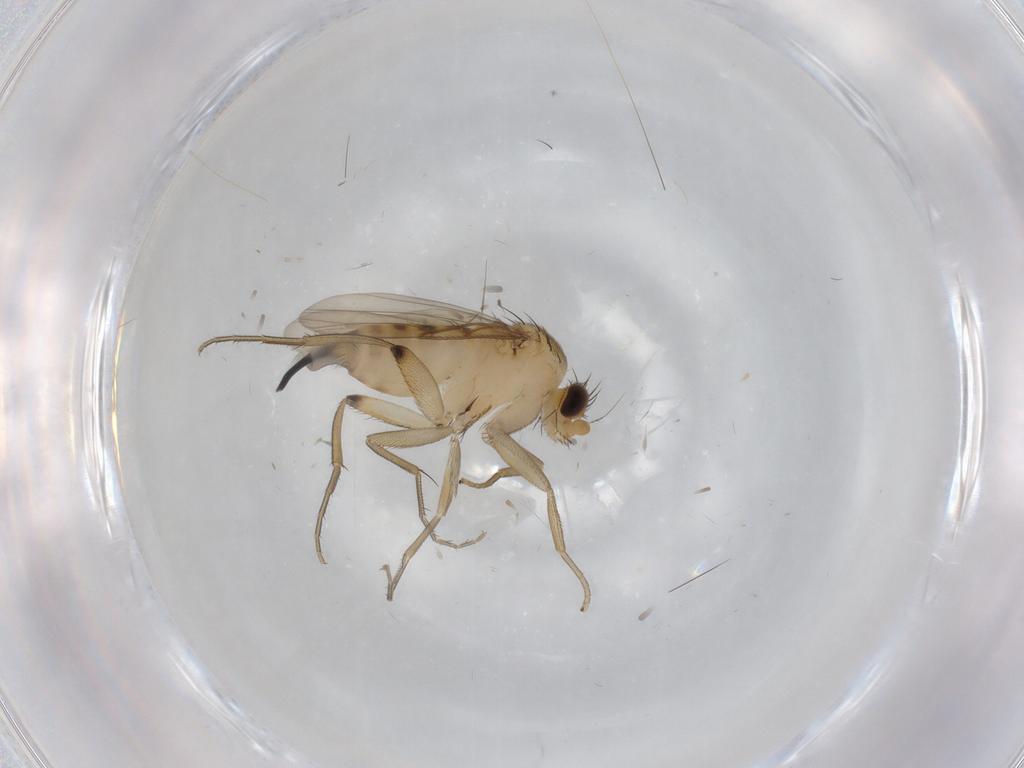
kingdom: Animalia
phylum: Arthropoda
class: Insecta
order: Diptera
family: Phoridae
